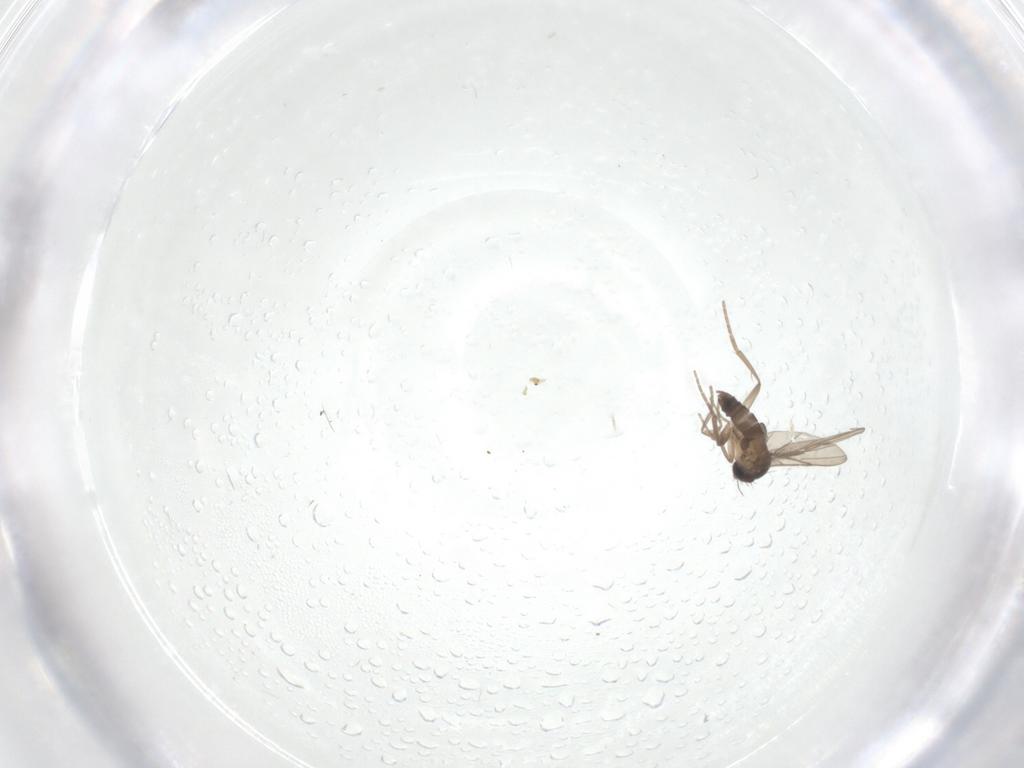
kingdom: Animalia
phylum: Arthropoda
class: Insecta
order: Diptera
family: Phoridae
